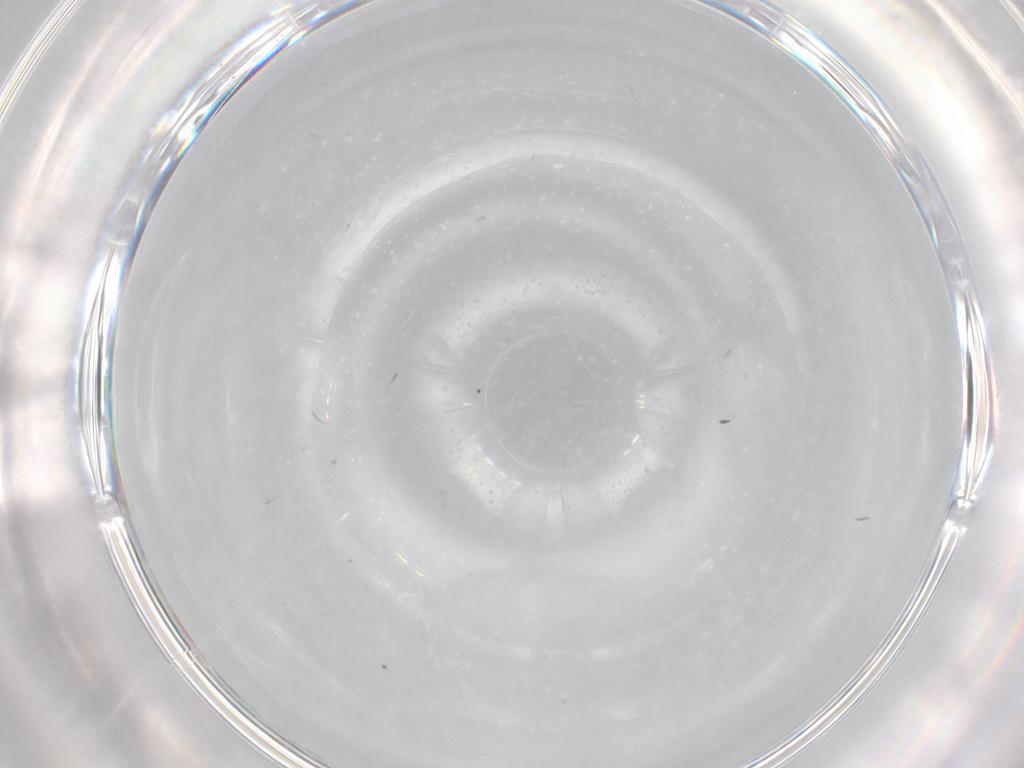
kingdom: Animalia
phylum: Arthropoda
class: Collembola
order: Entomobryomorpha
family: Entomobryidae
